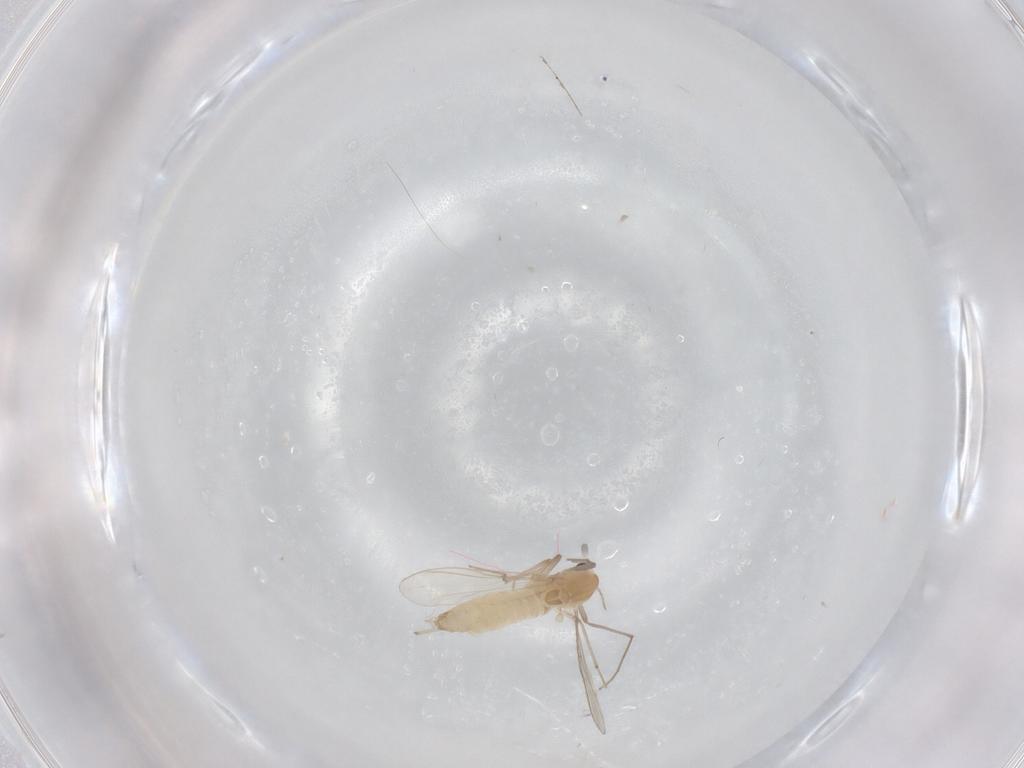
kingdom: Animalia
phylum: Arthropoda
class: Insecta
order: Diptera
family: Chironomidae
